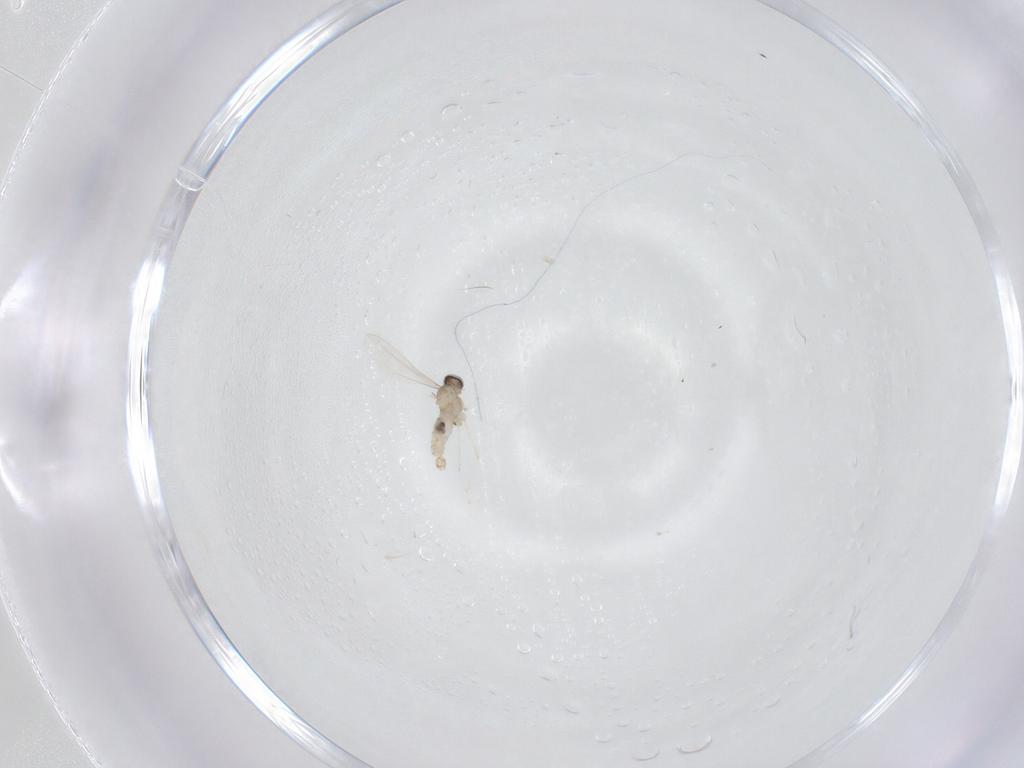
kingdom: Animalia
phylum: Arthropoda
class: Insecta
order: Diptera
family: Cecidomyiidae
